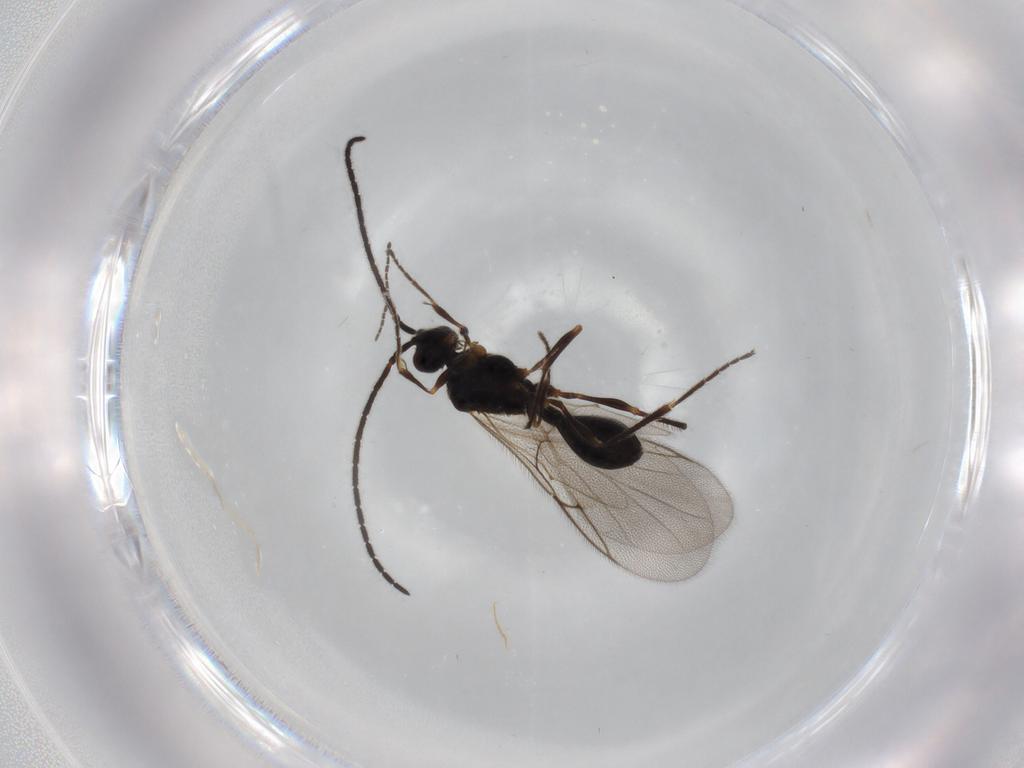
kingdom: Animalia
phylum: Arthropoda
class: Insecta
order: Hymenoptera
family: Diapriidae
